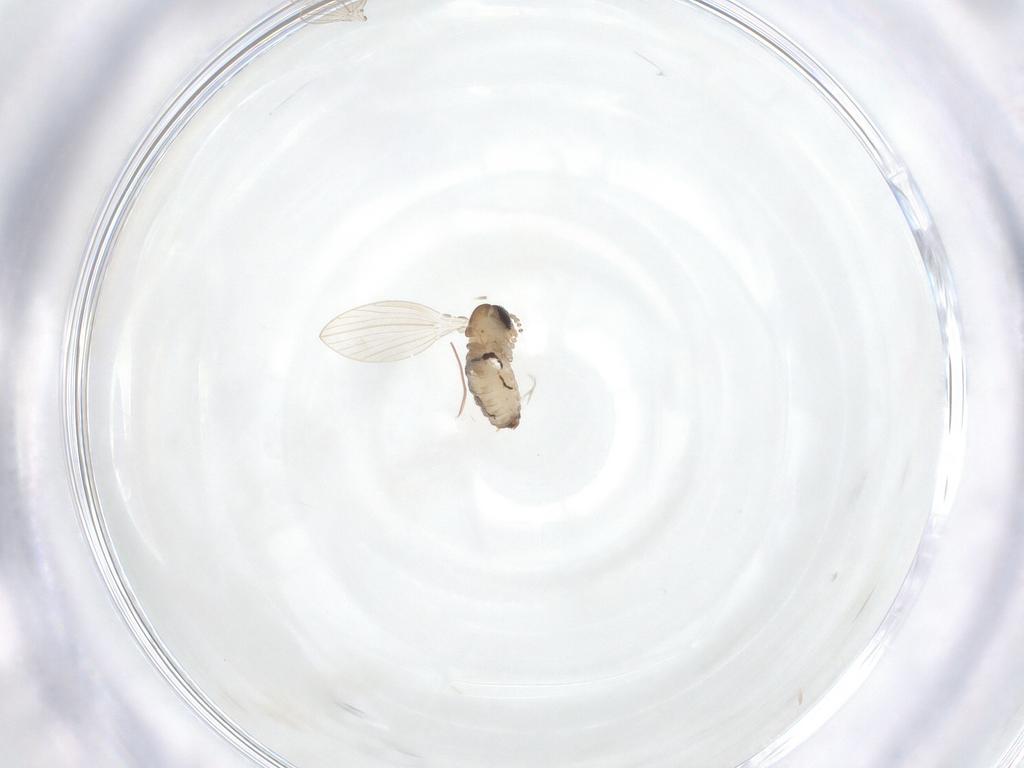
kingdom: Animalia
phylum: Arthropoda
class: Insecta
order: Diptera
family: Psychodidae
